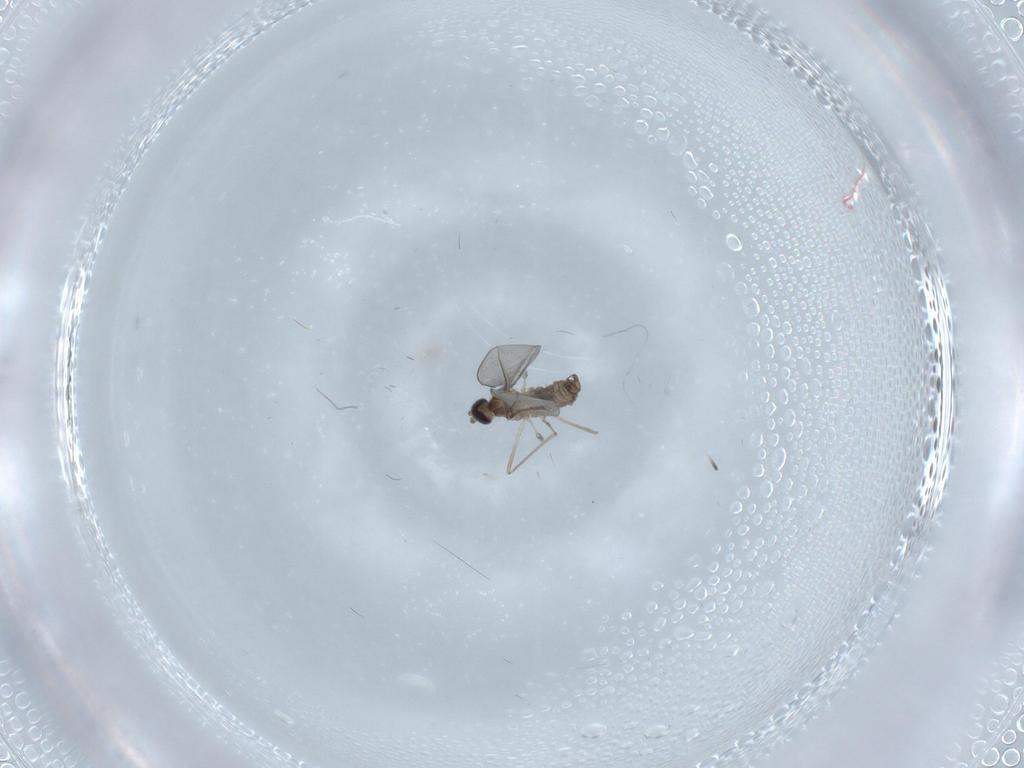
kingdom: Animalia
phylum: Arthropoda
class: Insecta
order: Diptera
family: Cecidomyiidae
